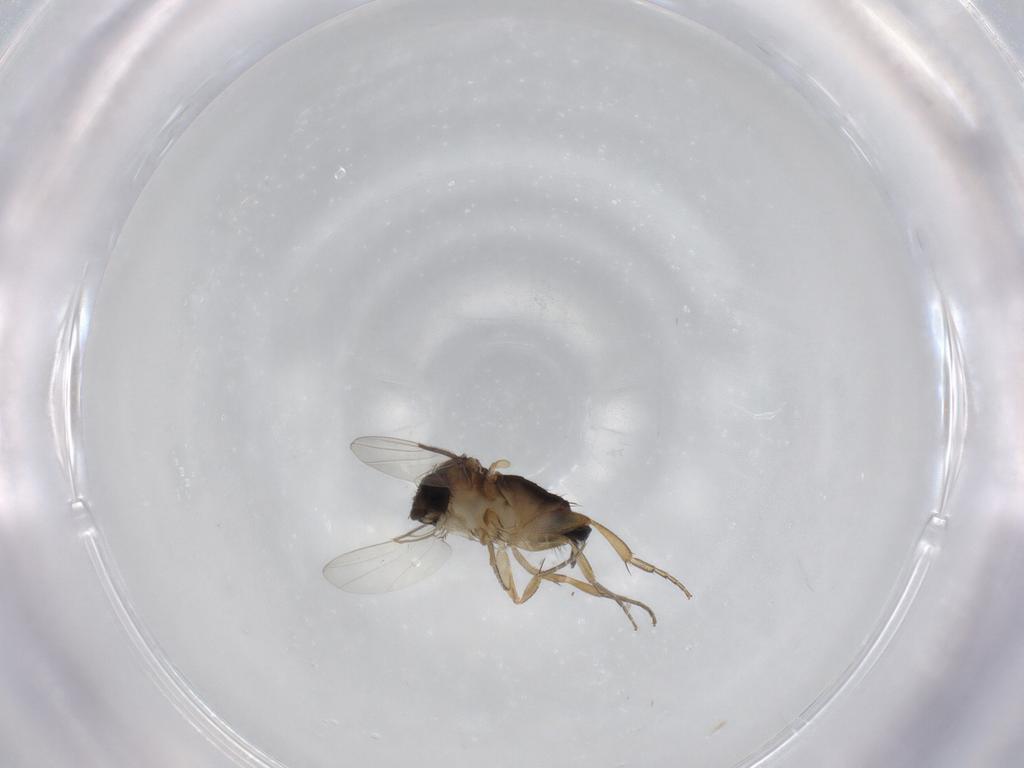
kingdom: Animalia
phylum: Arthropoda
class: Insecta
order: Diptera
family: Phoridae
